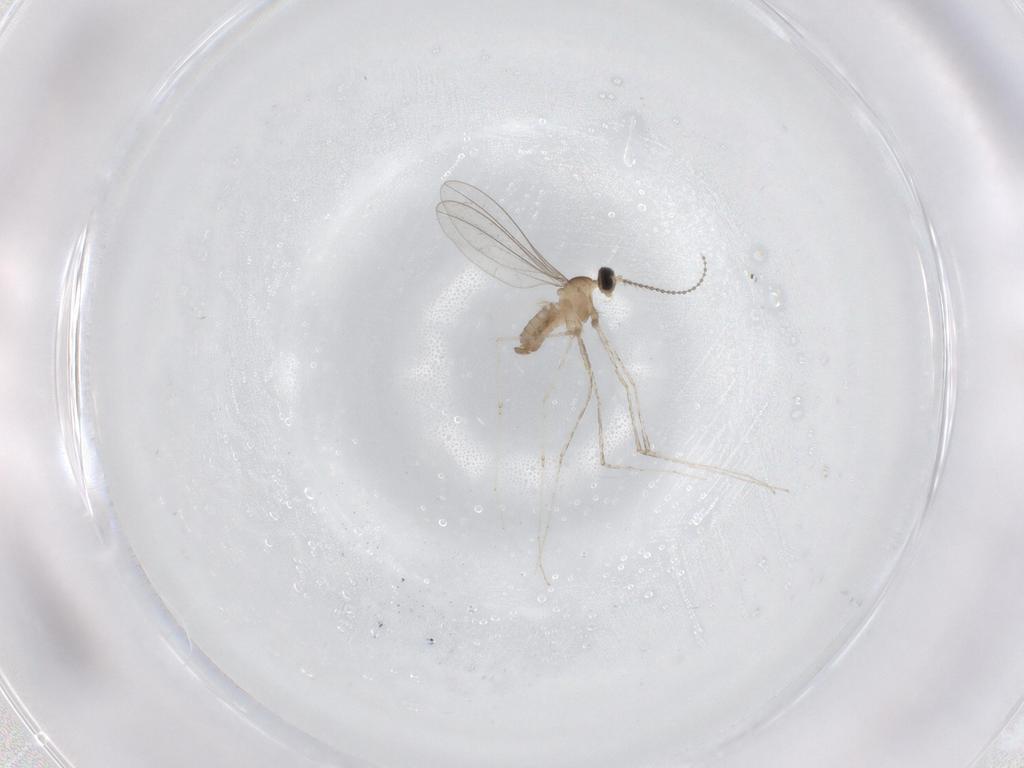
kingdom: Animalia
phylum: Arthropoda
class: Insecta
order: Diptera
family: Cecidomyiidae
